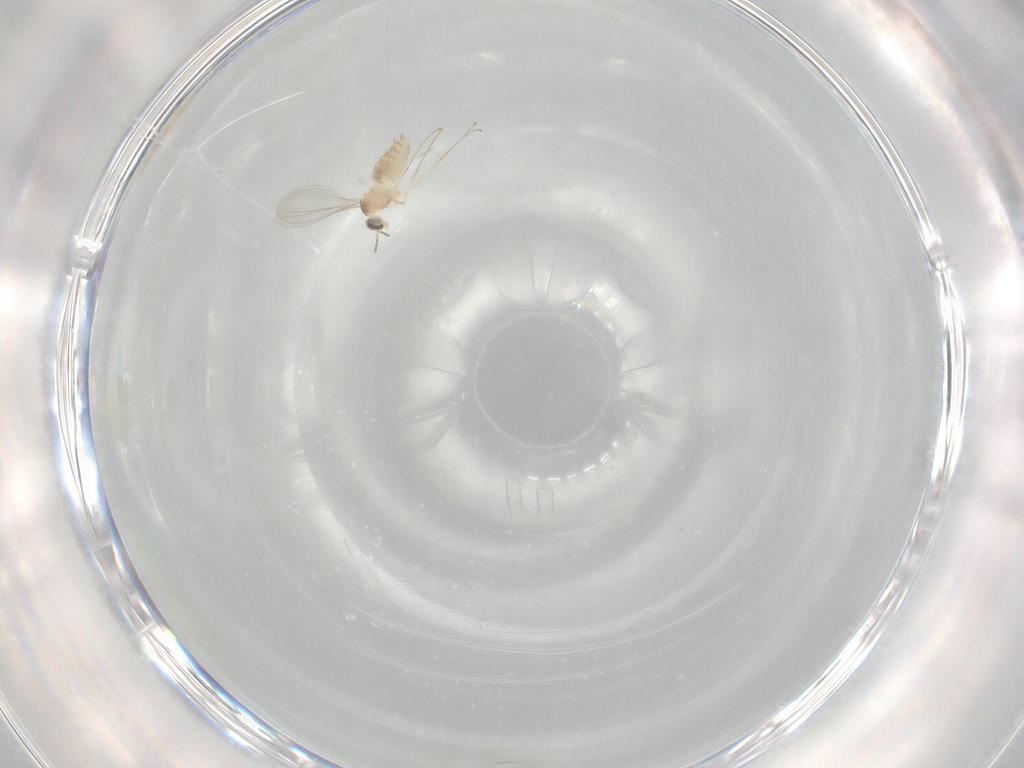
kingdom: Animalia
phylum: Arthropoda
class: Insecta
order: Diptera
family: Cecidomyiidae
